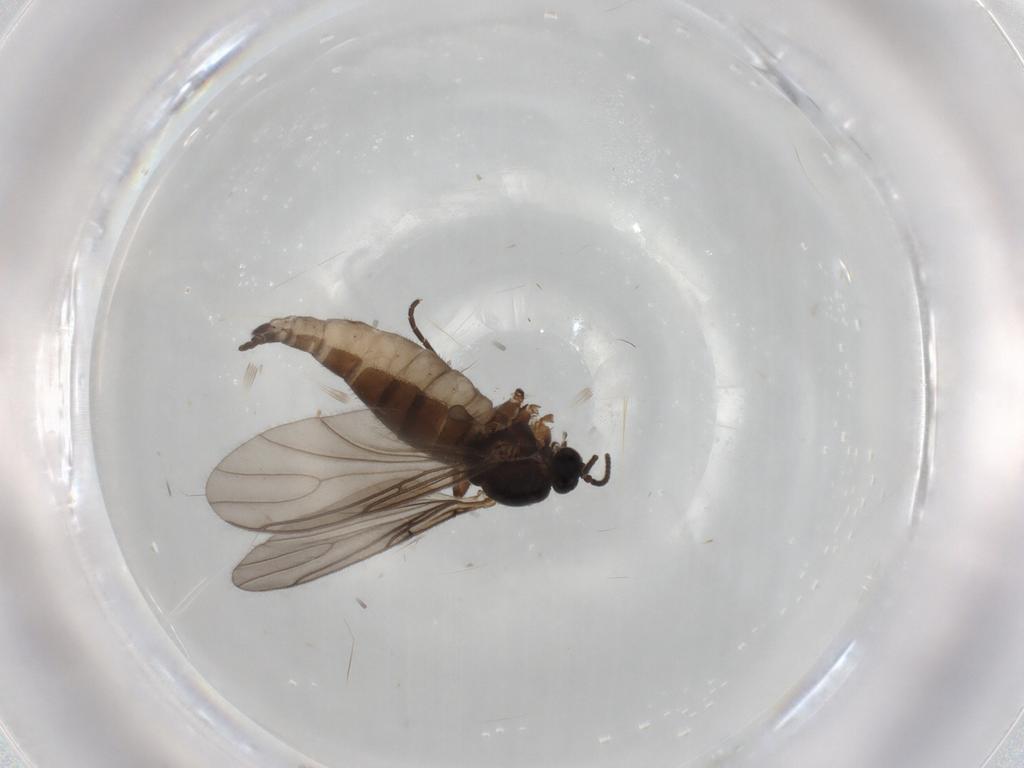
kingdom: Animalia
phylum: Arthropoda
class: Insecta
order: Diptera
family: Sciaridae
